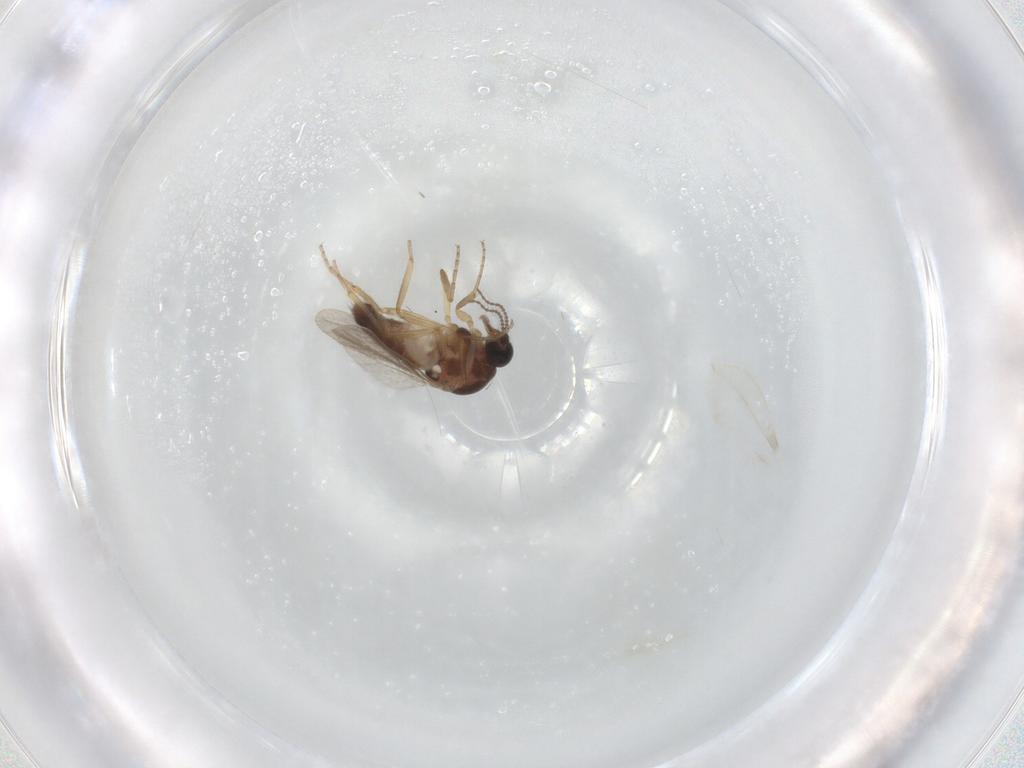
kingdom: Animalia
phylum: Arthropoda
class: Insecta
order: Diptera
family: Ceratopogonidae
